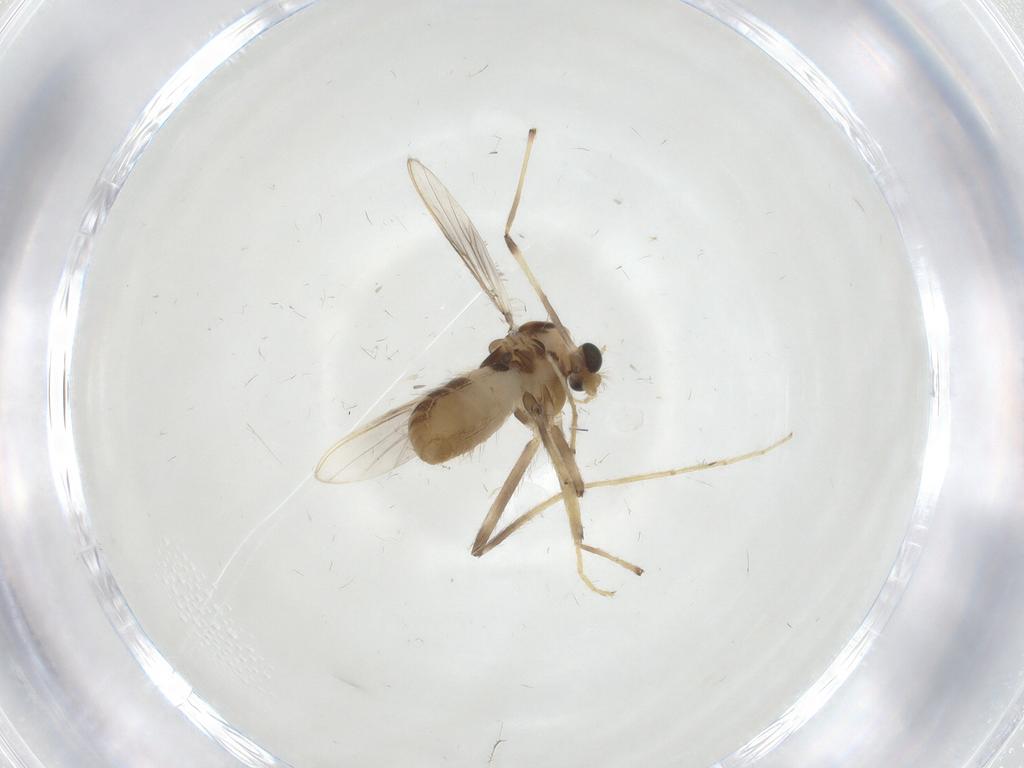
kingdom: Animalia
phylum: Arthropoda
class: Insecta
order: Diptera
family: Chironomidae
